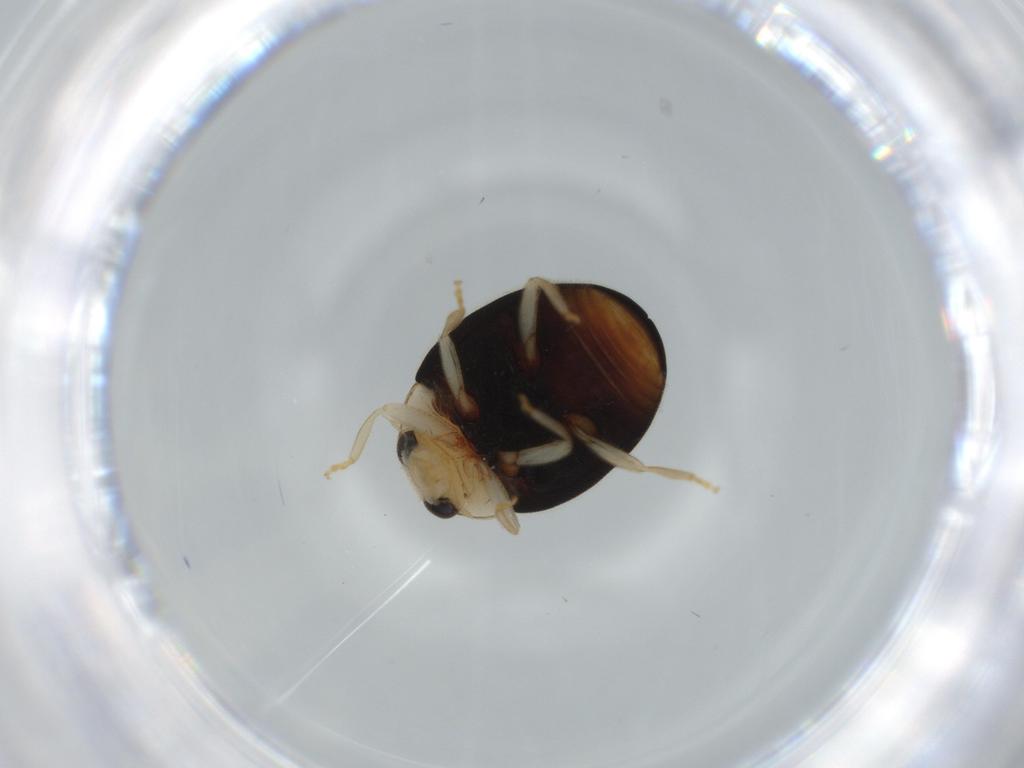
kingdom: Animalia
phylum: Arthropoda
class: Insecta
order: Coleoptera
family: Coccinellidae
